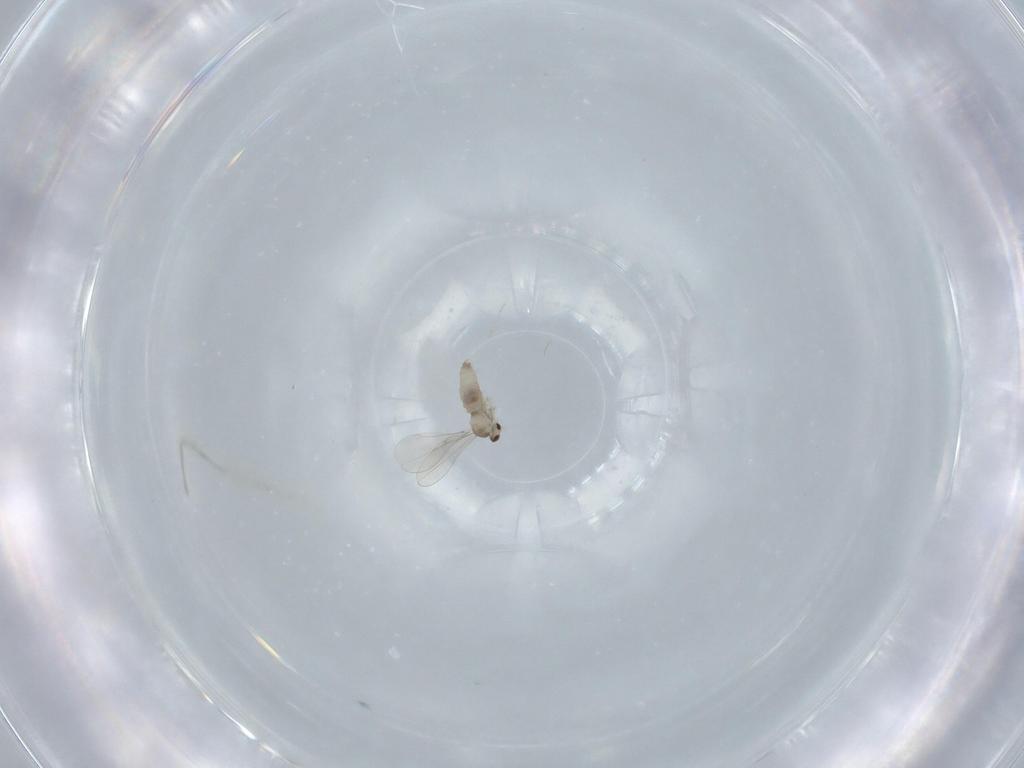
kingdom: Animalia
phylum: Arthropoda
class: Insecta
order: Diptera
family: Cecidomyiidae
